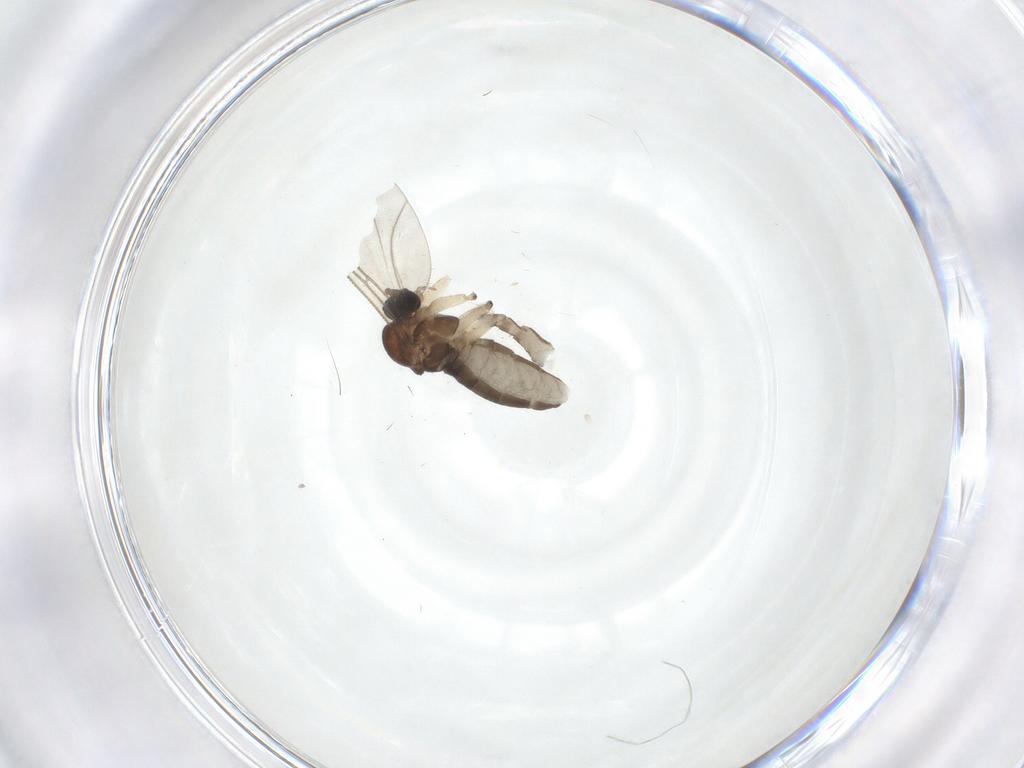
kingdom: Animalia
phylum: Arthropoda
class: Insecta
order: Diptera
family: Sciaridae
